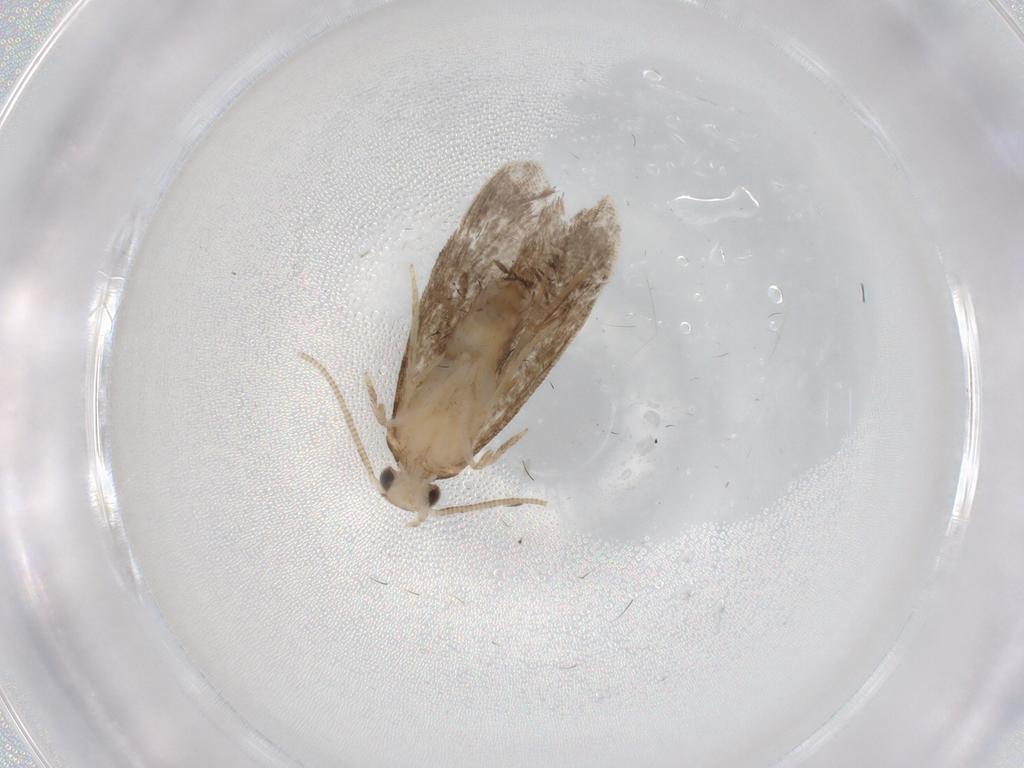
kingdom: Animalia
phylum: Arthropoda
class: Insecta
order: Lepidoptera
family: Dryadaulidae
